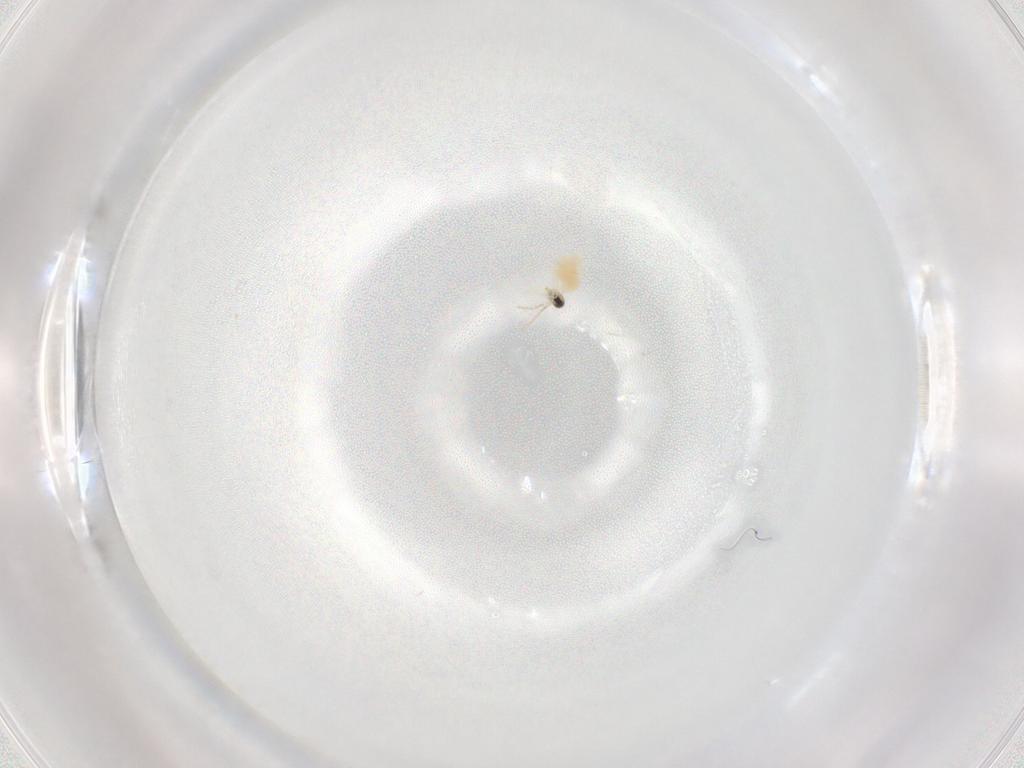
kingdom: Animalia
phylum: Arthropoda
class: Insecta
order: Diptera
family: Cecidomyiidae
